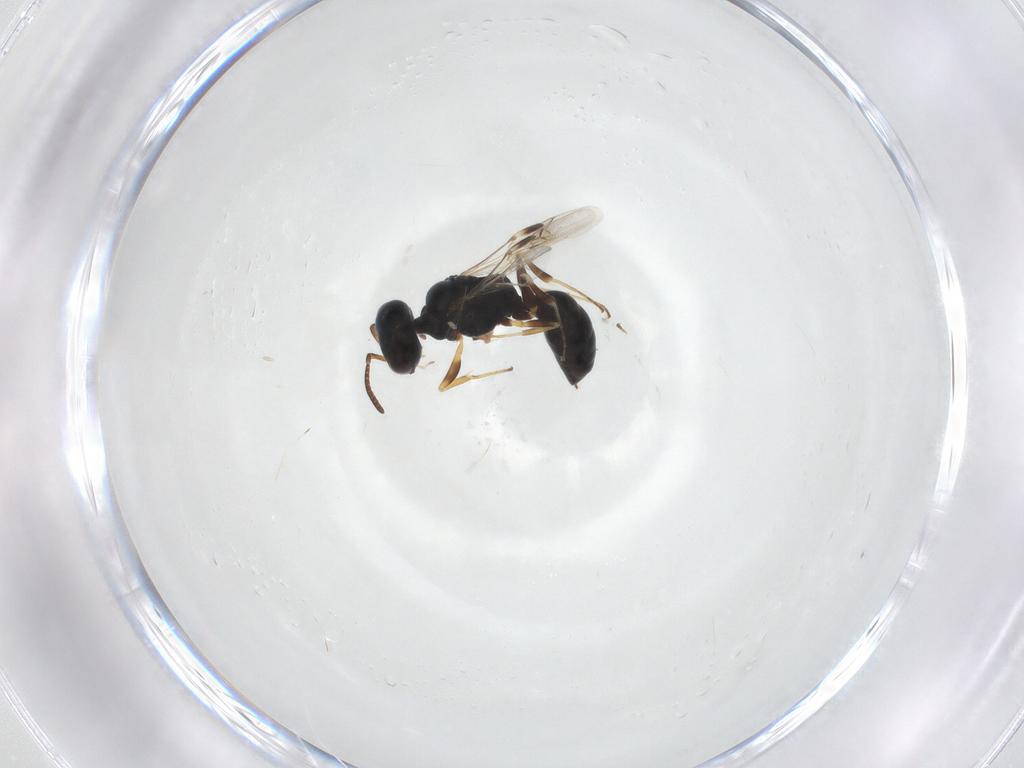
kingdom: Animalia
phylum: Arthropoda
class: Insecta
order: Hymenoptera
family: Pemphredonidae
